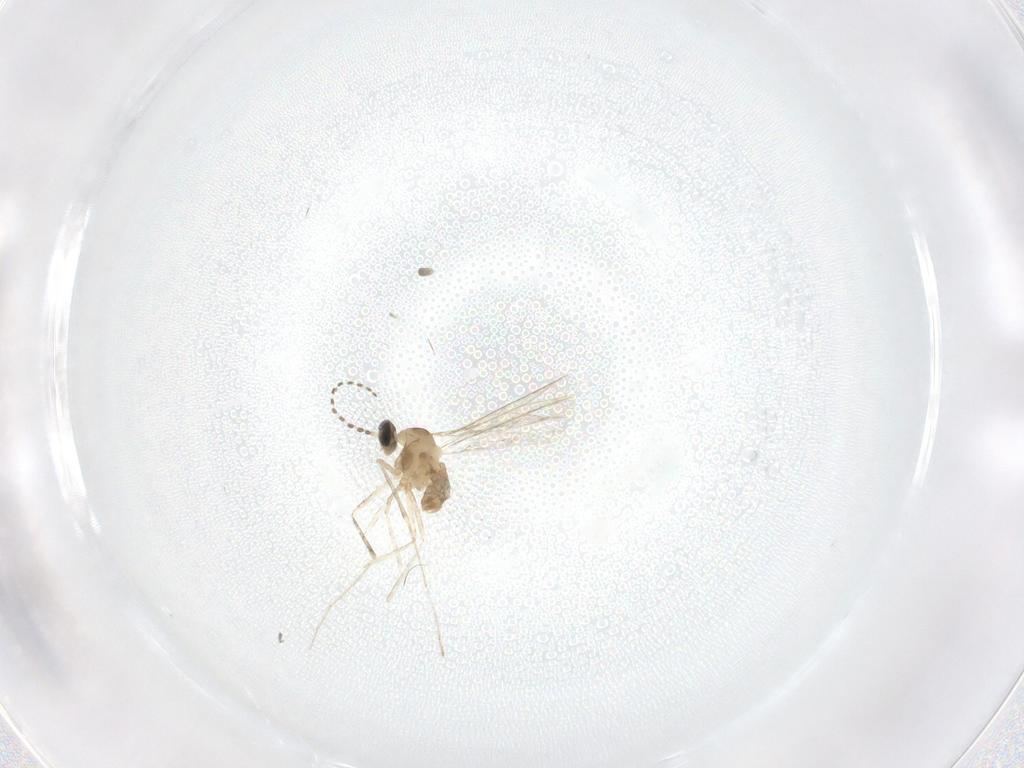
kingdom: Animalia
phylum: Arthropoda
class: Insecta
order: Diptera
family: Cecidomyiidae
